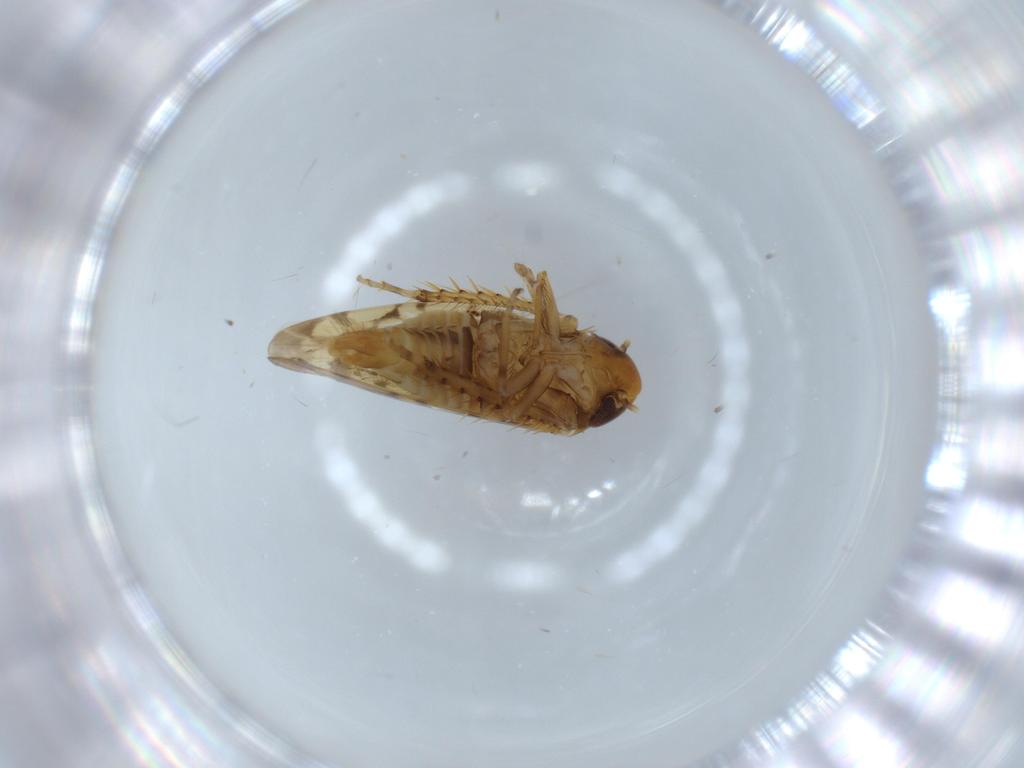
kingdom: Animalia
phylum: Arthropoda
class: Insecta
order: Hemiptera
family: Cicadellidae
